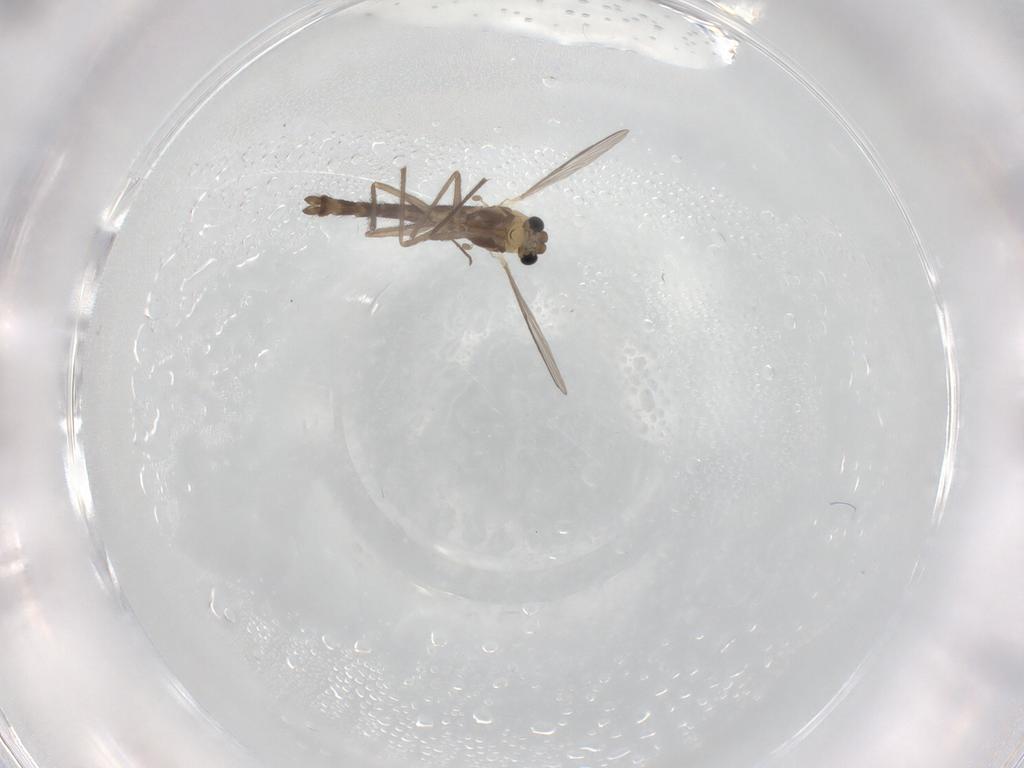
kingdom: Animalia
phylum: Arthropoda
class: Insecta
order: Diptera
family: Chironomidae
